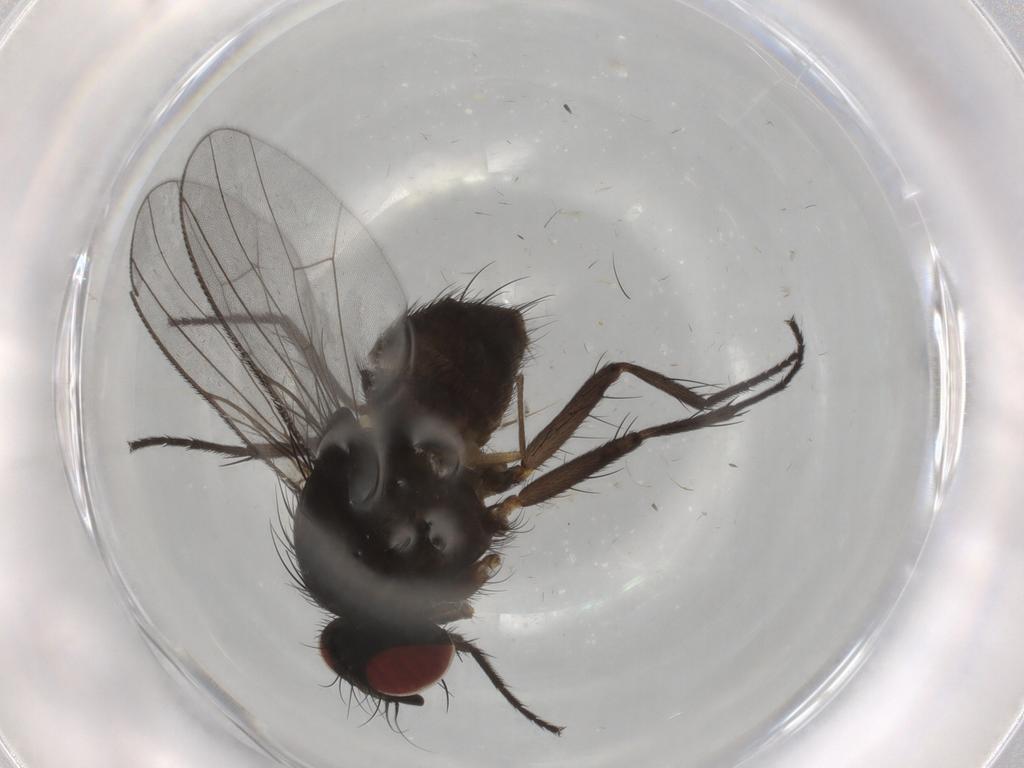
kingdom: Animalia
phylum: Arthropoda
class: Insecta
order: Diptera
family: Muscidae
